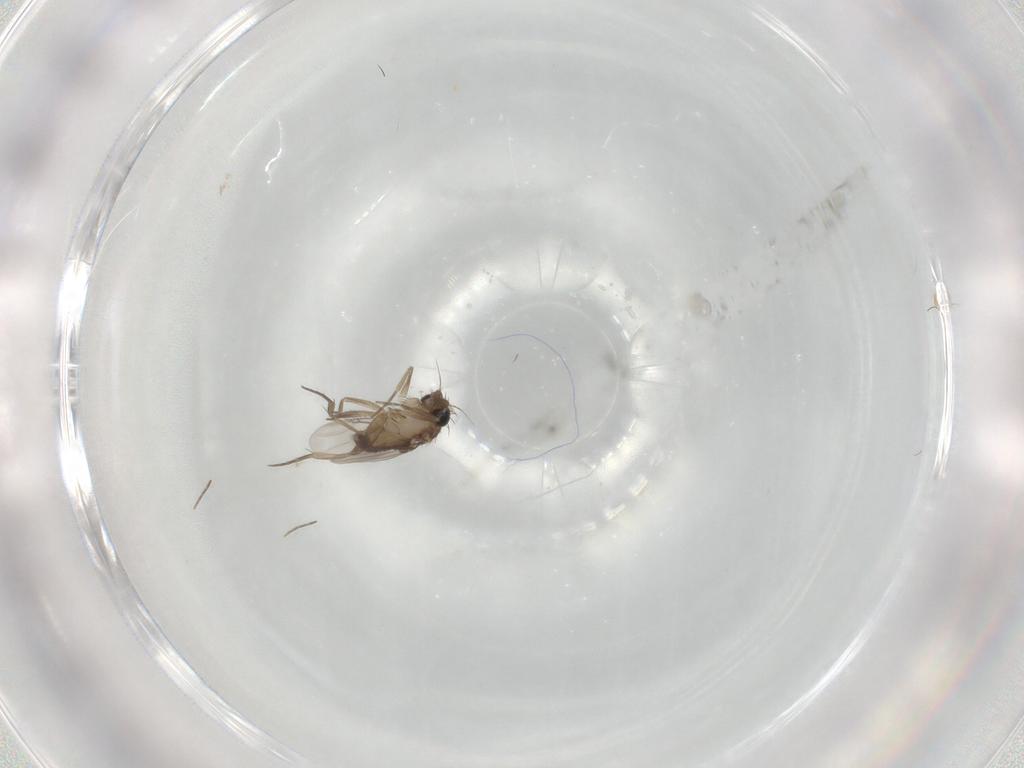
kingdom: Animalia
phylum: Arthropoda
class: Insecta
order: Diptera
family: Phoridae
